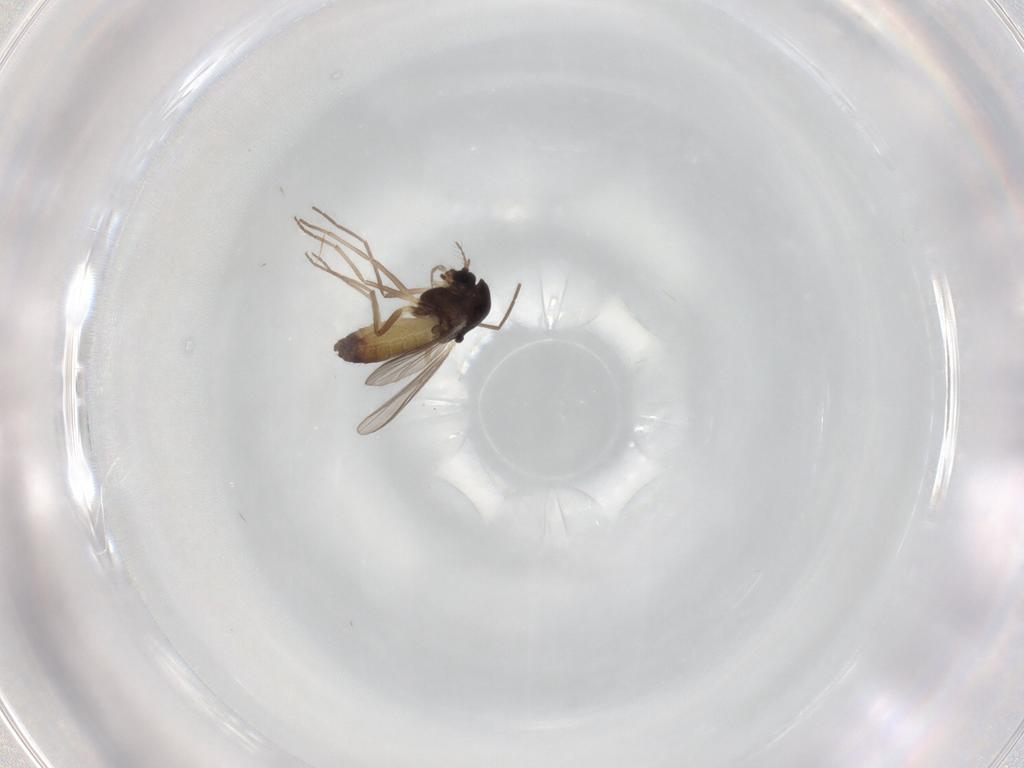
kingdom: Animalia
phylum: Arthropoda
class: Insecta
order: Diptera
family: Chironomidae
